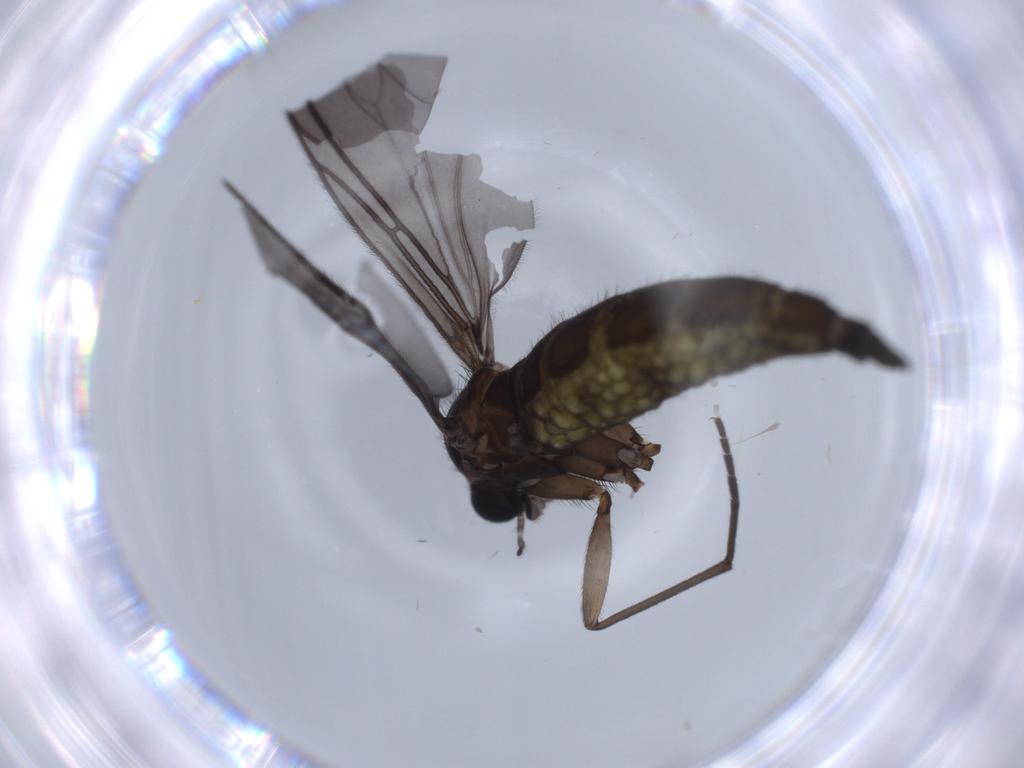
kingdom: Animalia
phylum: Arthropoda
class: Insecta
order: Diptera
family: Sciaridae
